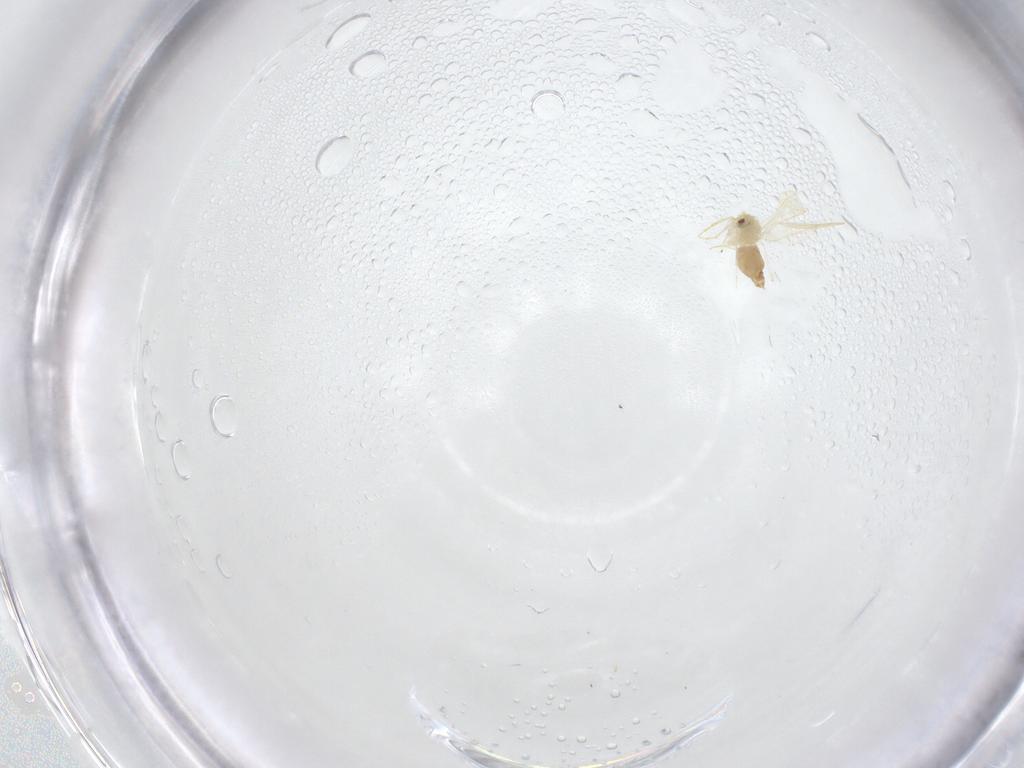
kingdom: Animalia
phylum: Arthropoda
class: Insecta
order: Hemiptera
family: Aleyrodidae
